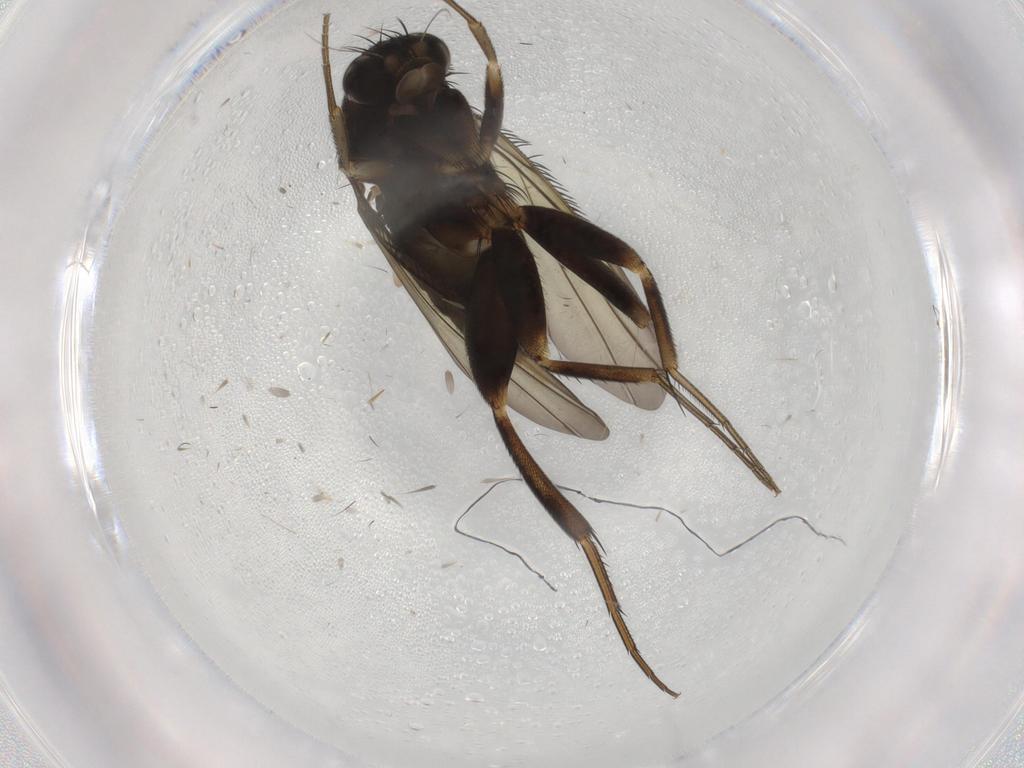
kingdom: Animalia
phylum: Arthropoda
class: Insecta
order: Diptera
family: Phoridae
